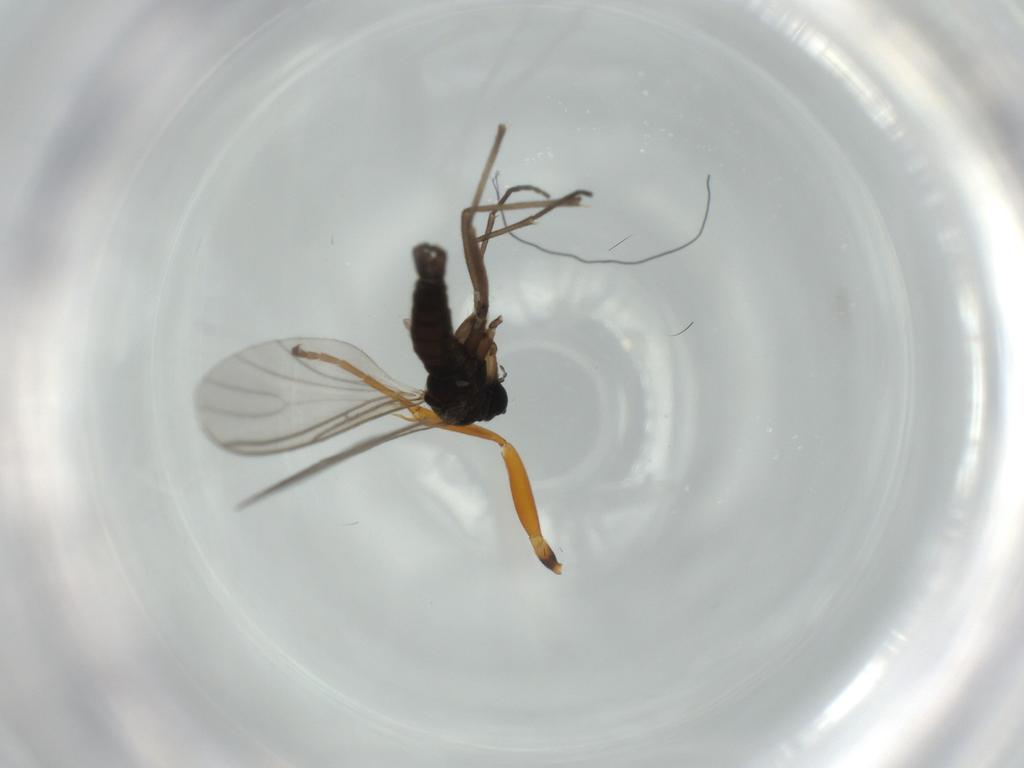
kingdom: Animalia
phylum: Arthropoda
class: Insecta
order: Diptera
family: Sciaridae
